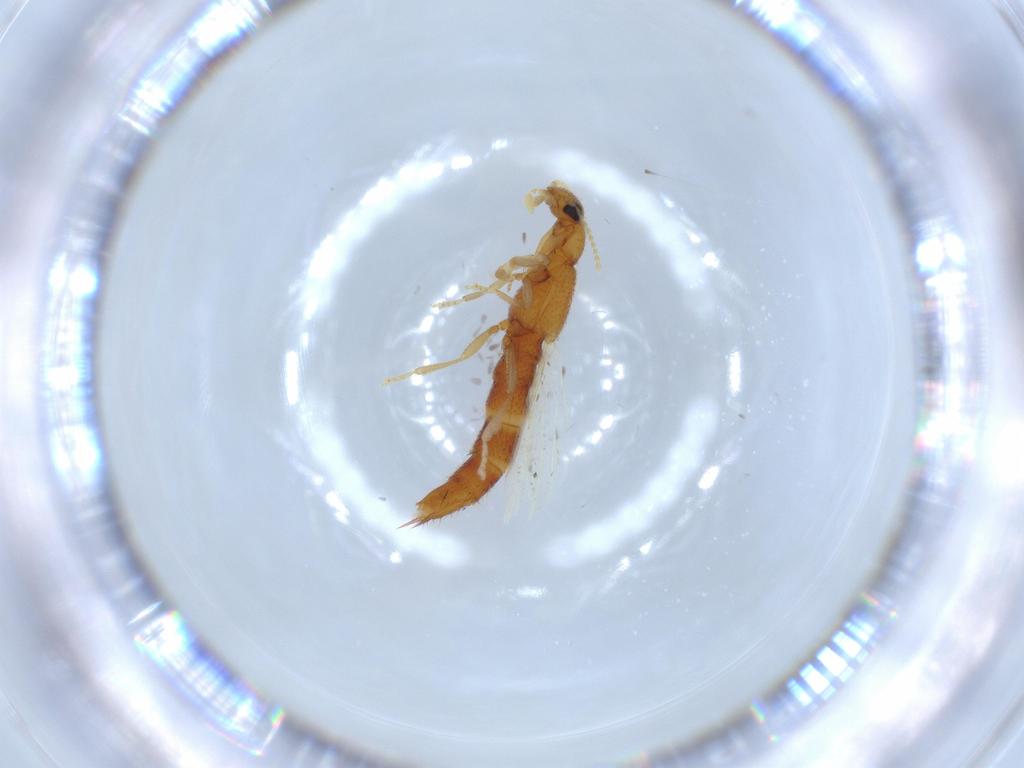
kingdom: Animalia
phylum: Arthropoda
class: Insecta
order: Coleoptera
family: Staphylinidae
